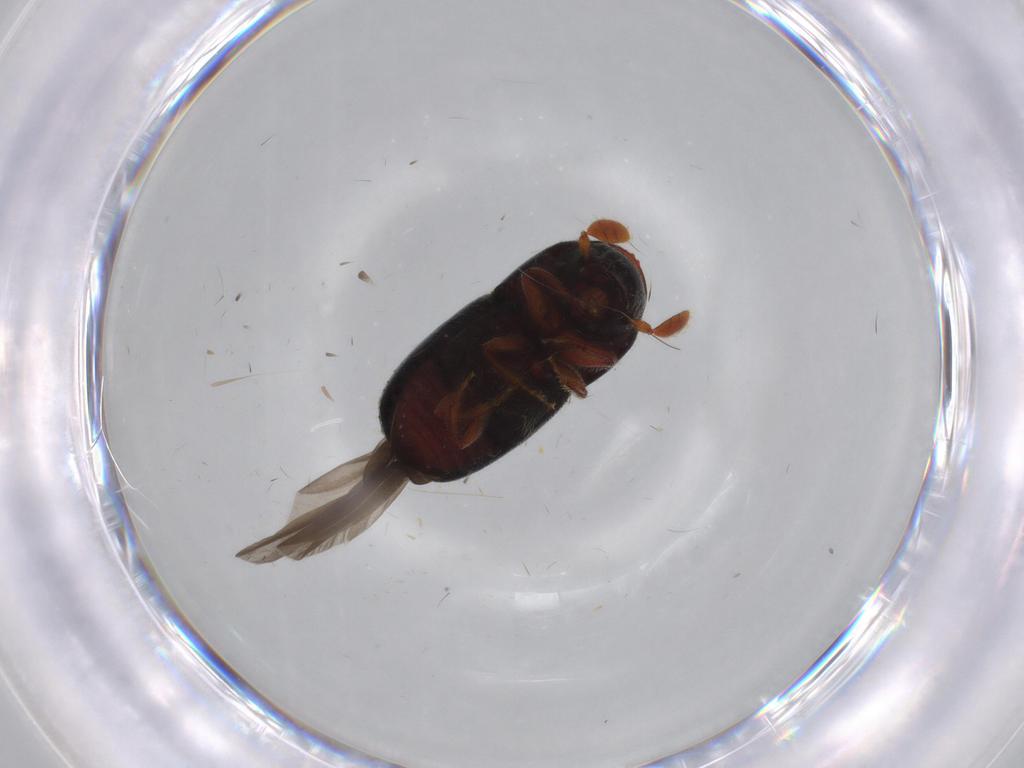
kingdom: Animalia
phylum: Arthropoda
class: Insecta
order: Coleoptera
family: Curculionidae
